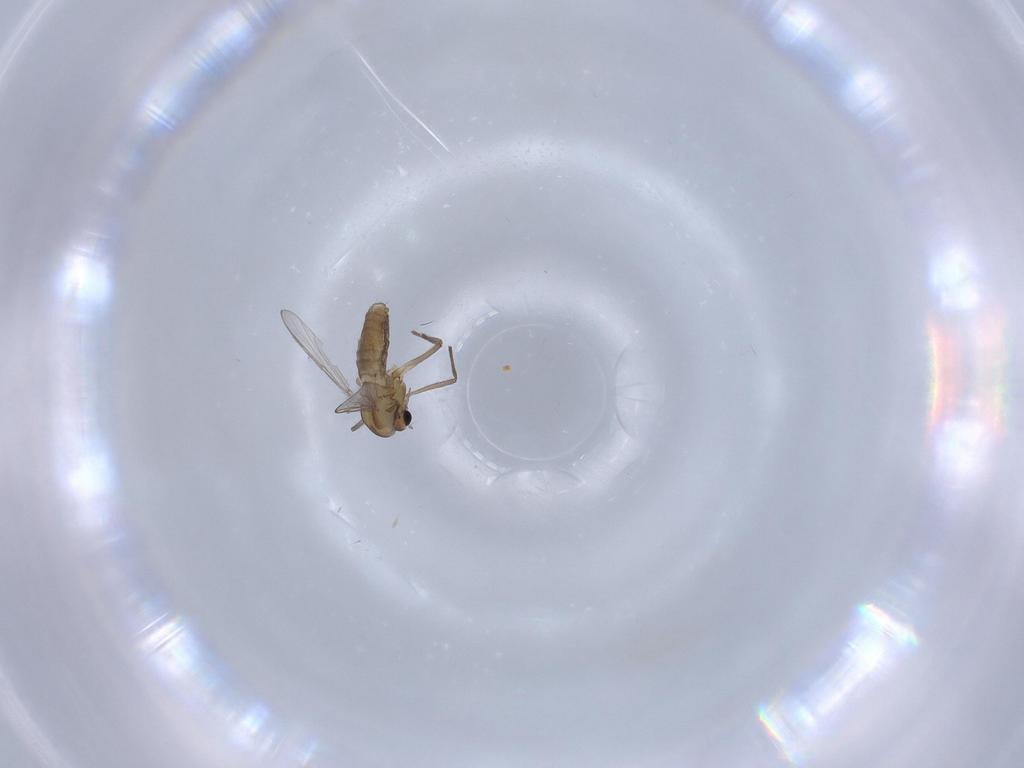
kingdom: Animalia
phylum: Arthropoda
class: Insecta
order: Diptera
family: Chironomidae
